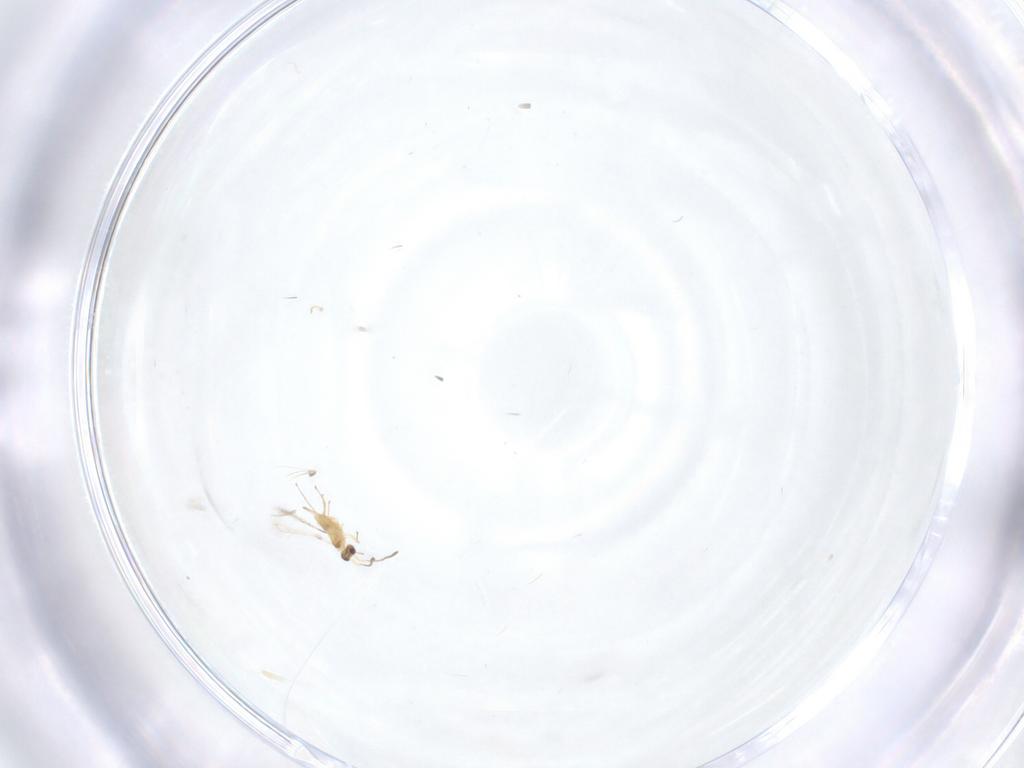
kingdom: Animalia
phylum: Arthropoda
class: Insecta
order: Hymenoptera
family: Mymaridae
